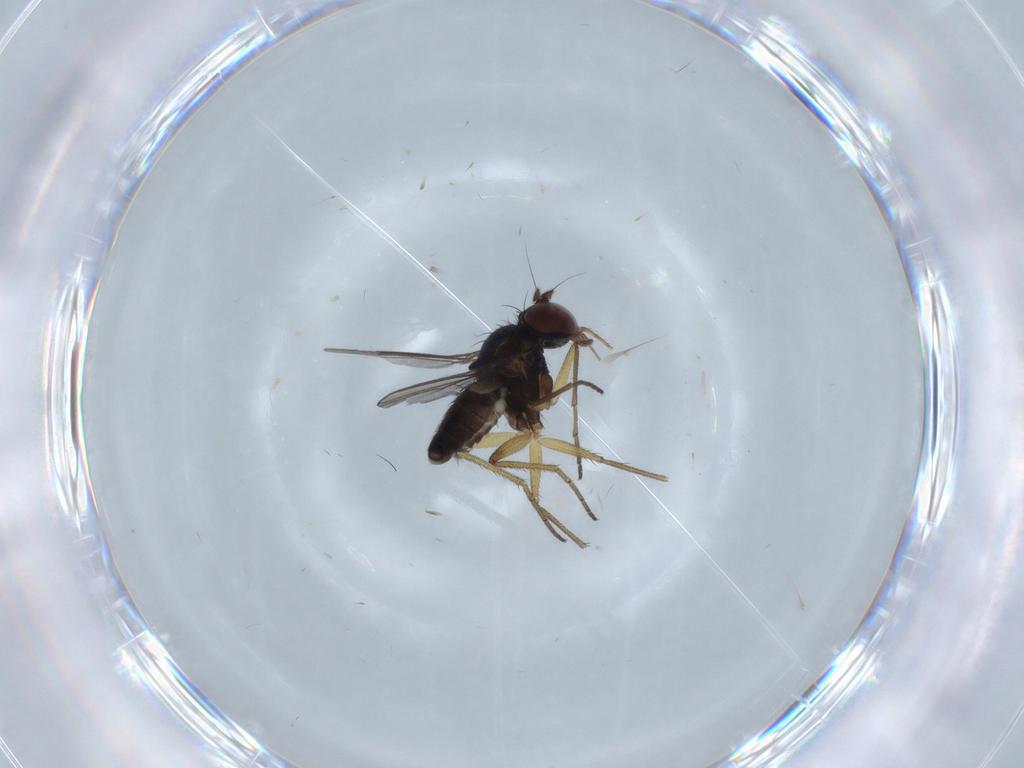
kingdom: Animalia
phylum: Arthropoda
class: Insecta
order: Diptera
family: Dolichopodidae
